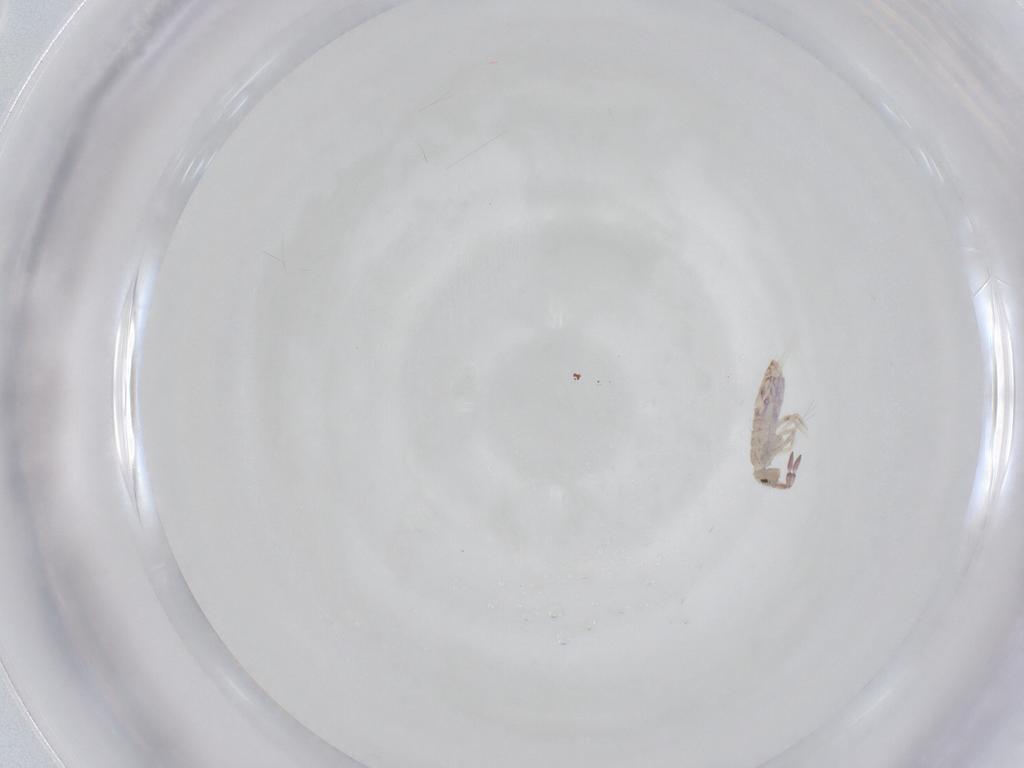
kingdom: Animalia
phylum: Arthropoda
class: Collembola
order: Entomobryomorpha
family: Entomobryidae
